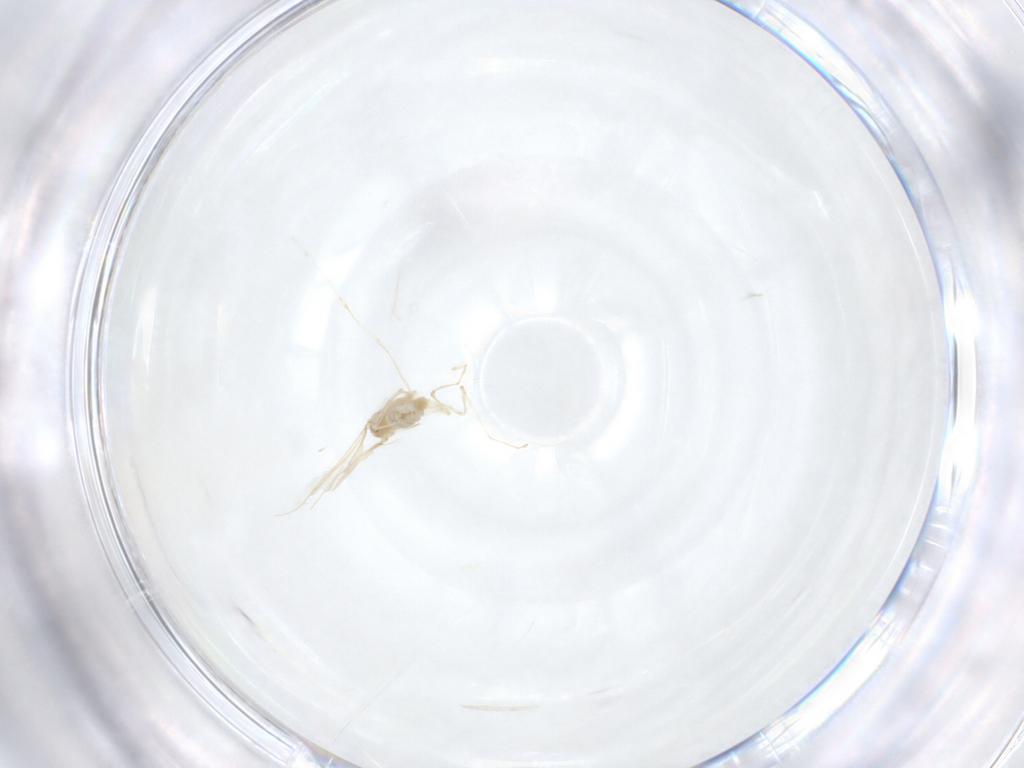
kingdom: Animalia
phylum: Arthropoda
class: Insecta
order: Diptera
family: Cecidomyiidae
